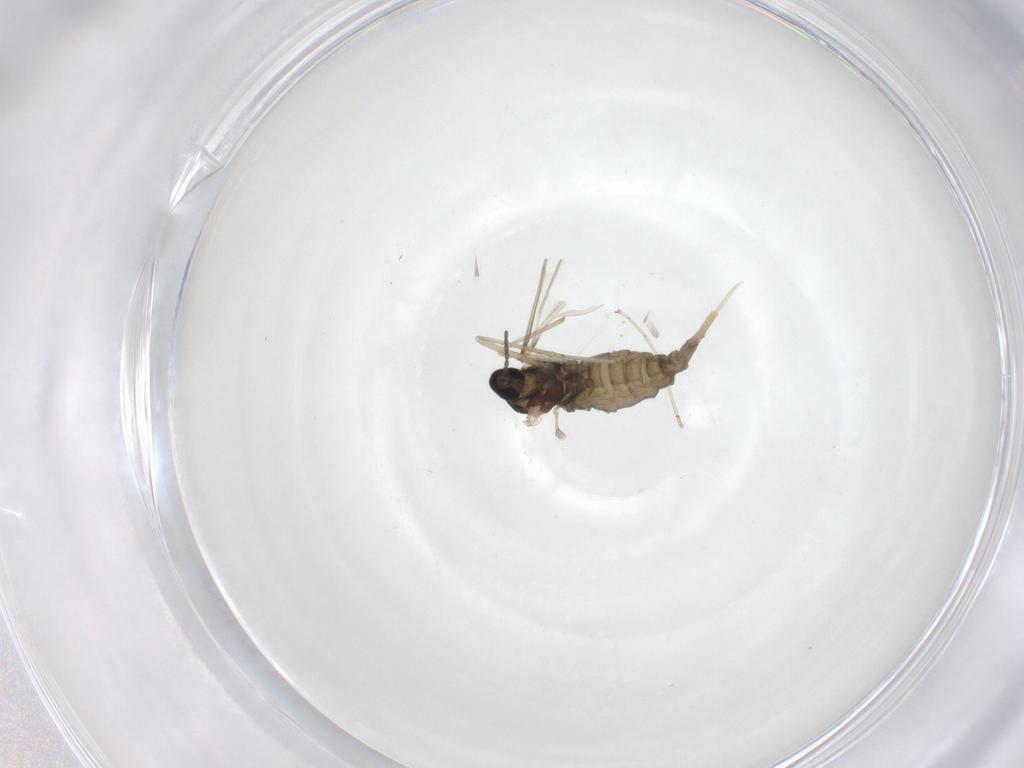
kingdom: Animalia
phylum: Arthropoda
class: Insecta
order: Diptera
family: Cecidomyiidae
